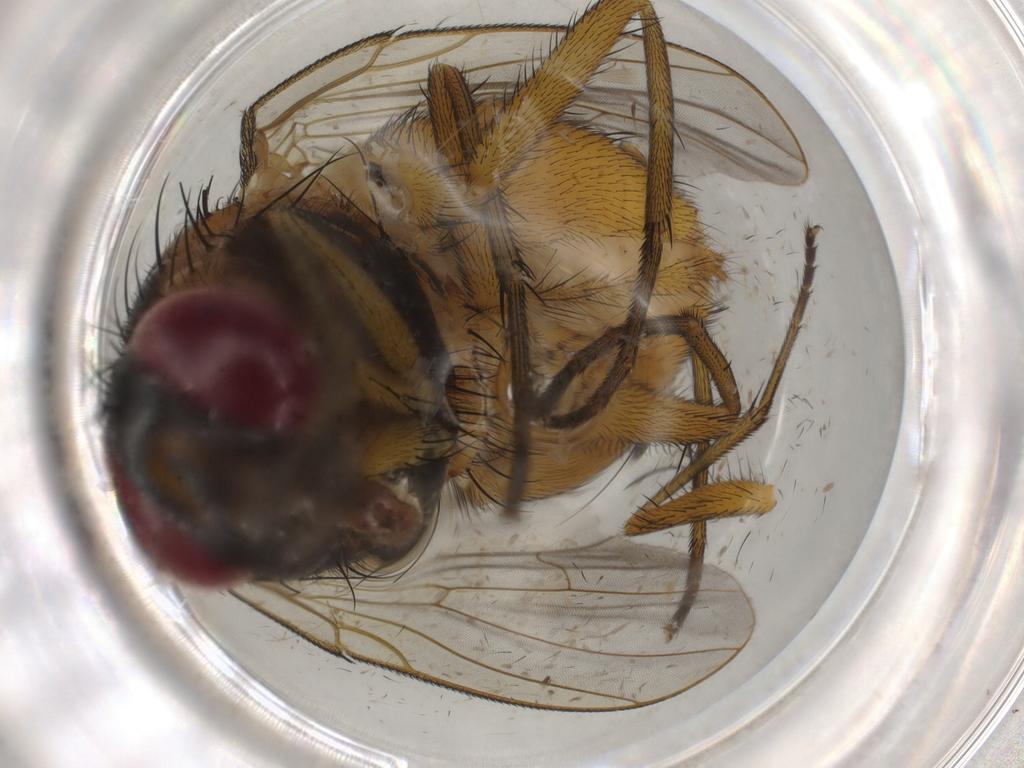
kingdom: Animalia
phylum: Arthropoda
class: Insecta
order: Diptera
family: Muscidae
